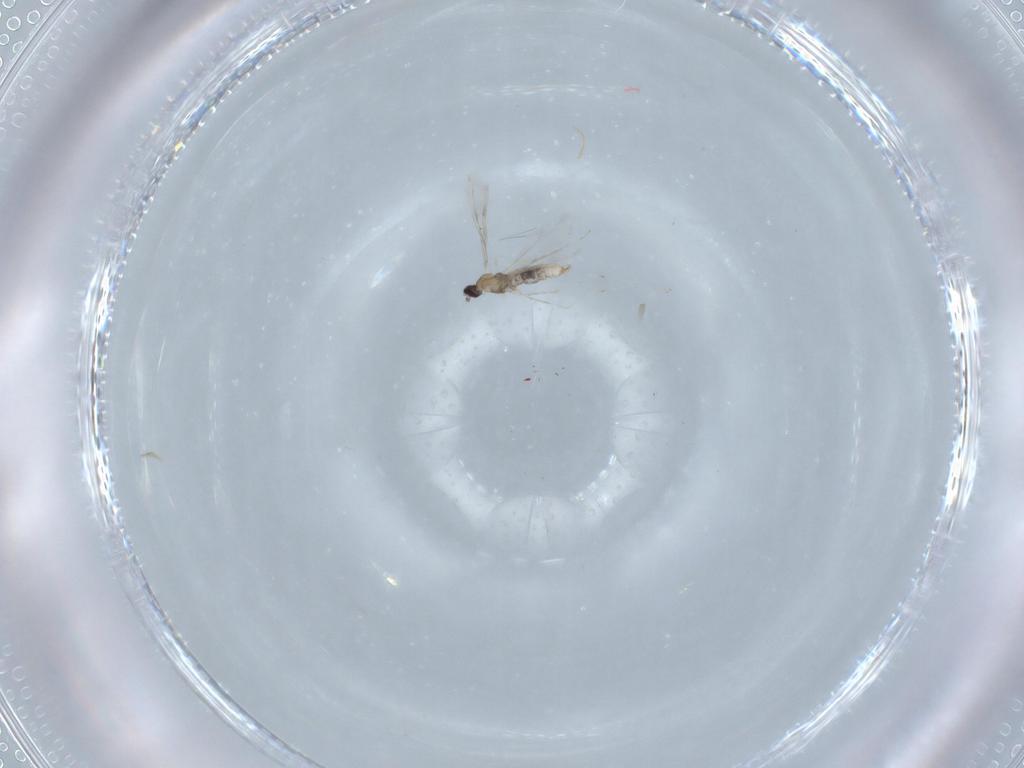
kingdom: Animalia
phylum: Arthropoda
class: Insecta
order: Diptera
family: Cecidomyiidae
